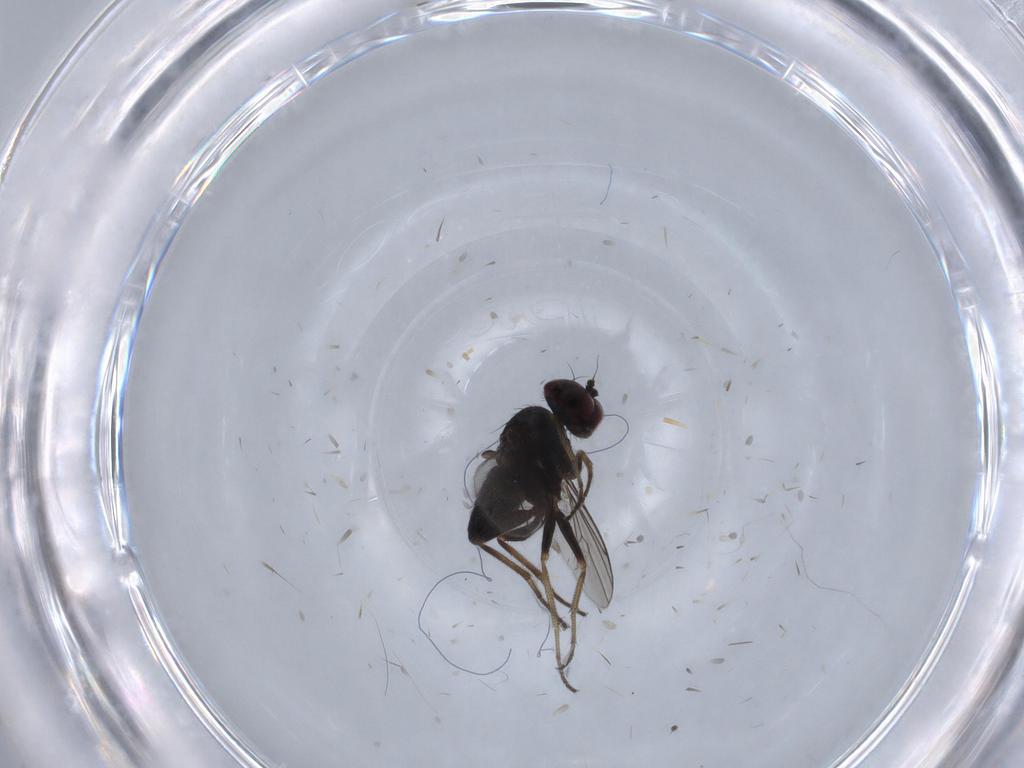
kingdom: Animalia
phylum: Arthropoda
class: Insecta
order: Diptera
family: Dolichopodidae
